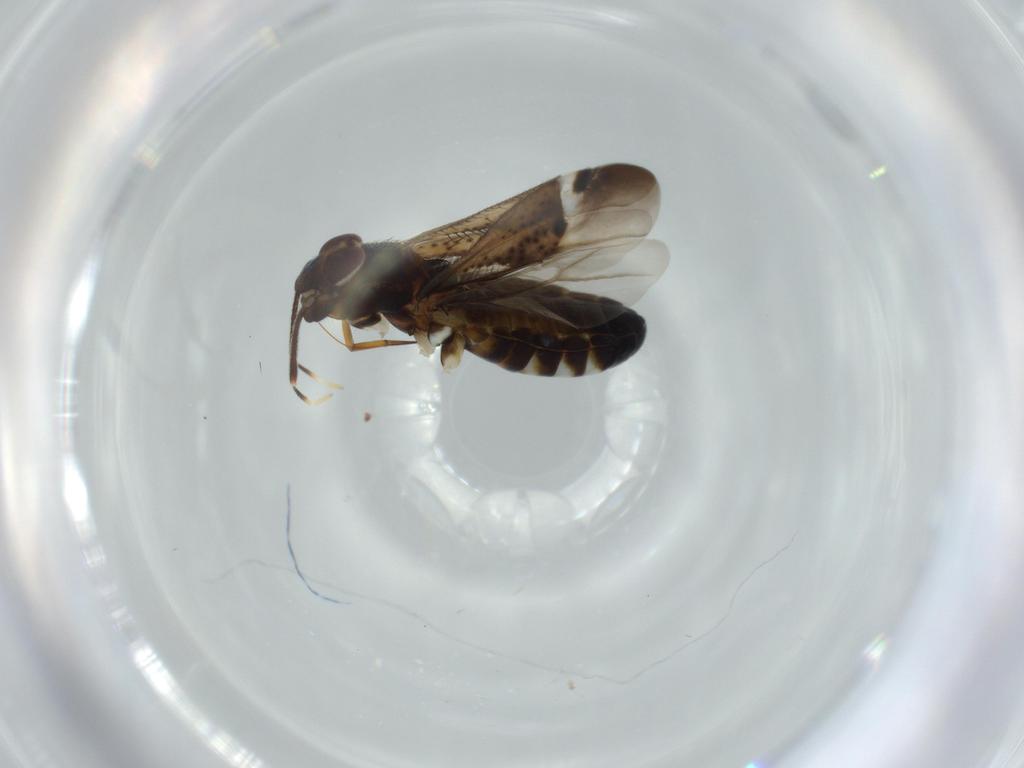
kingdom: Animalia
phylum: Arthropoda
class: Insecta
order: Hemiptera
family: Miridae
